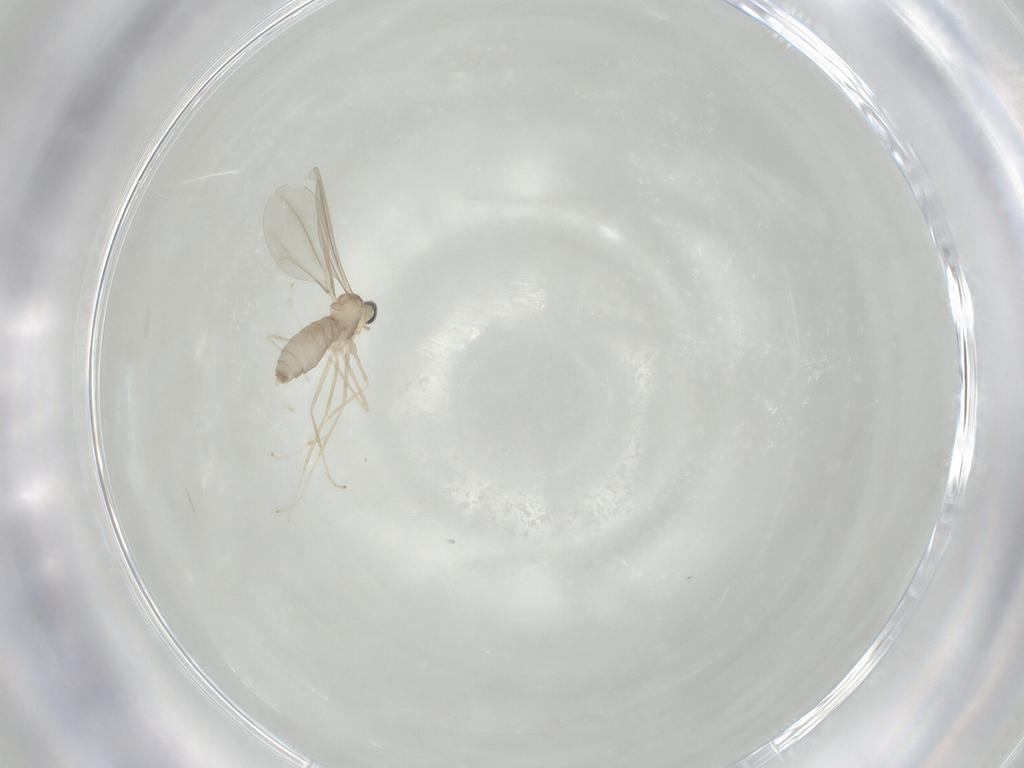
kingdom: Animalia
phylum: Arthropoda
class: Insecta
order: Diptera
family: Cecidomyiidae
